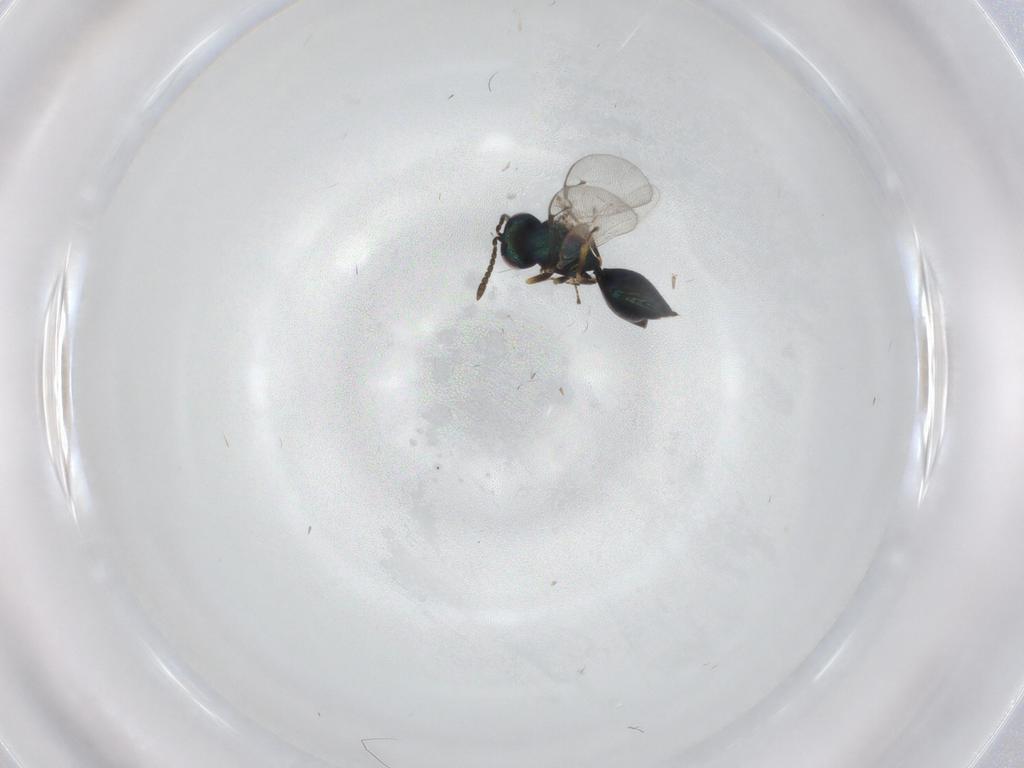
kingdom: Animalia
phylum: Arthropoda
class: Insecta
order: Hymenoptera
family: Pteromalidae
